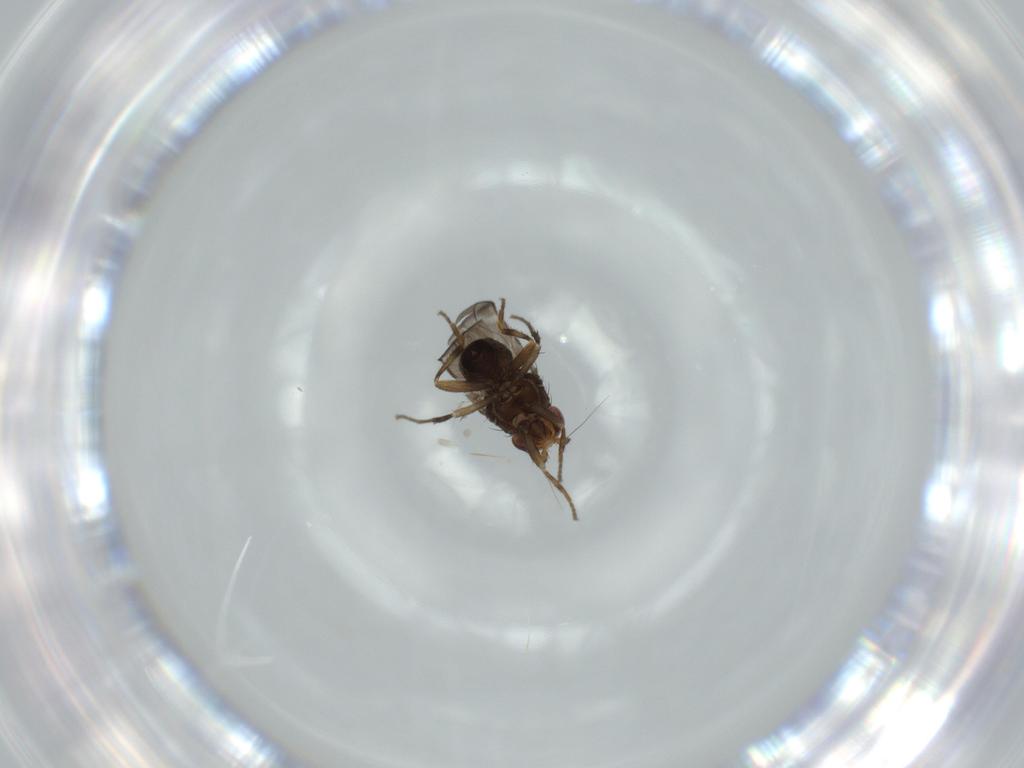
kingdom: Animalia
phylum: Arthropoda
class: Insecta
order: Diptera
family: Sphaeroceridae
